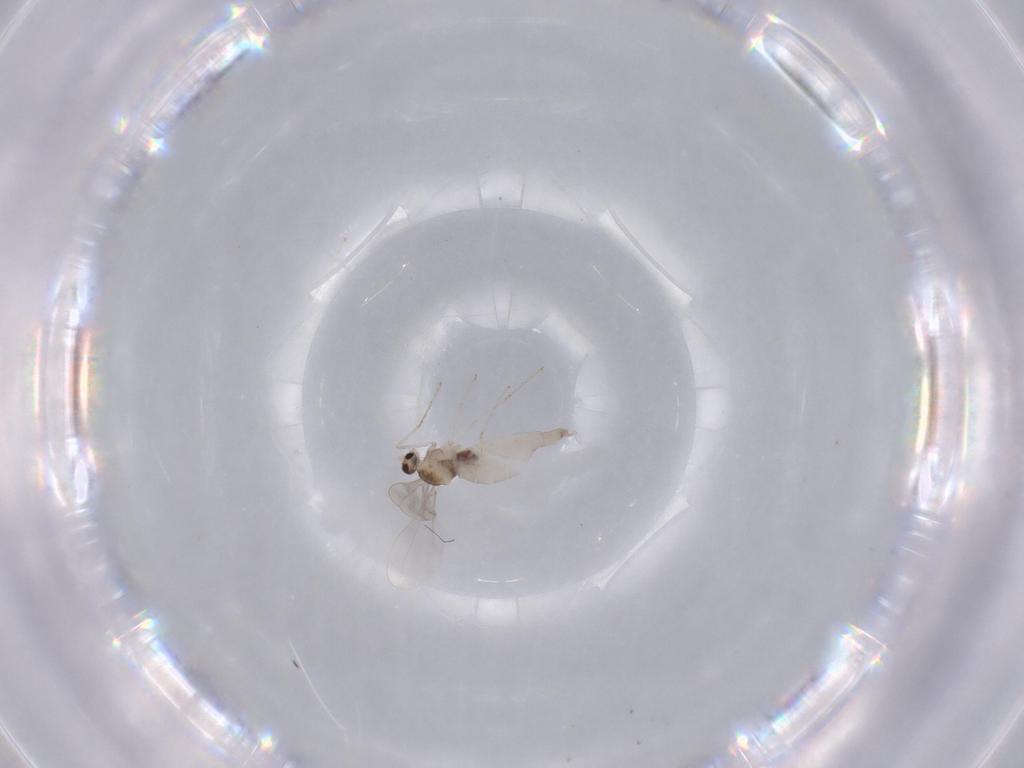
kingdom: Animalia
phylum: Arthropoda
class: Insecta
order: Diptera
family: Cecidomyiidae
